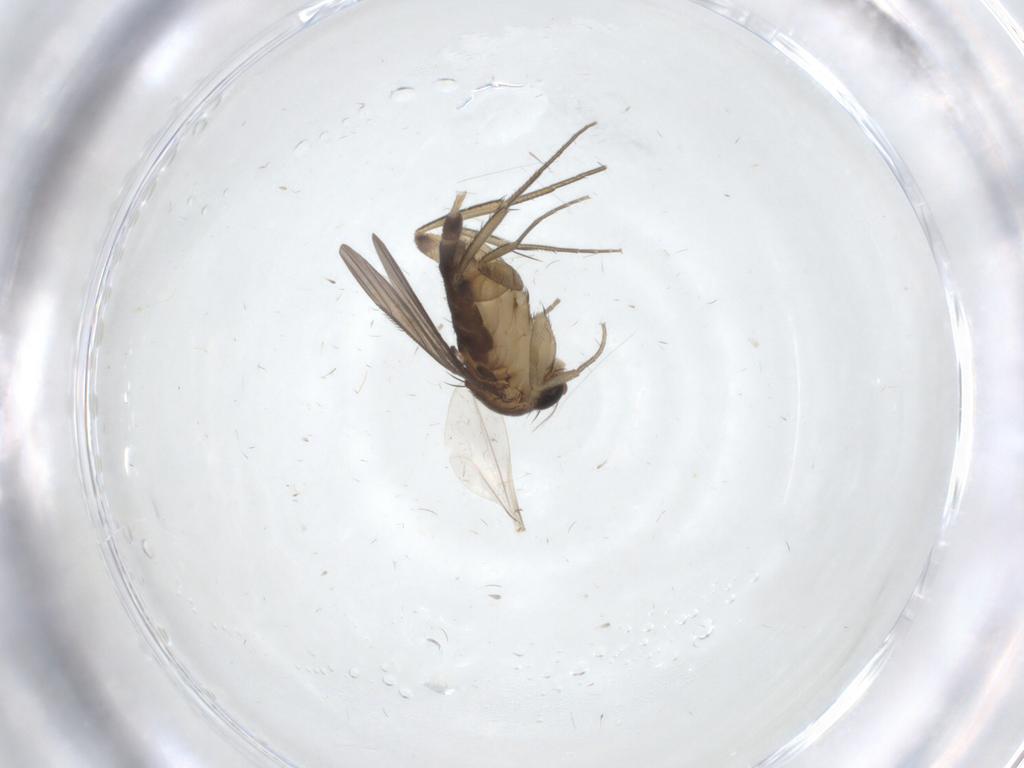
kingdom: Animalia
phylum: Arthropoda
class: Insecta
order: Diptera
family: Phoridae
